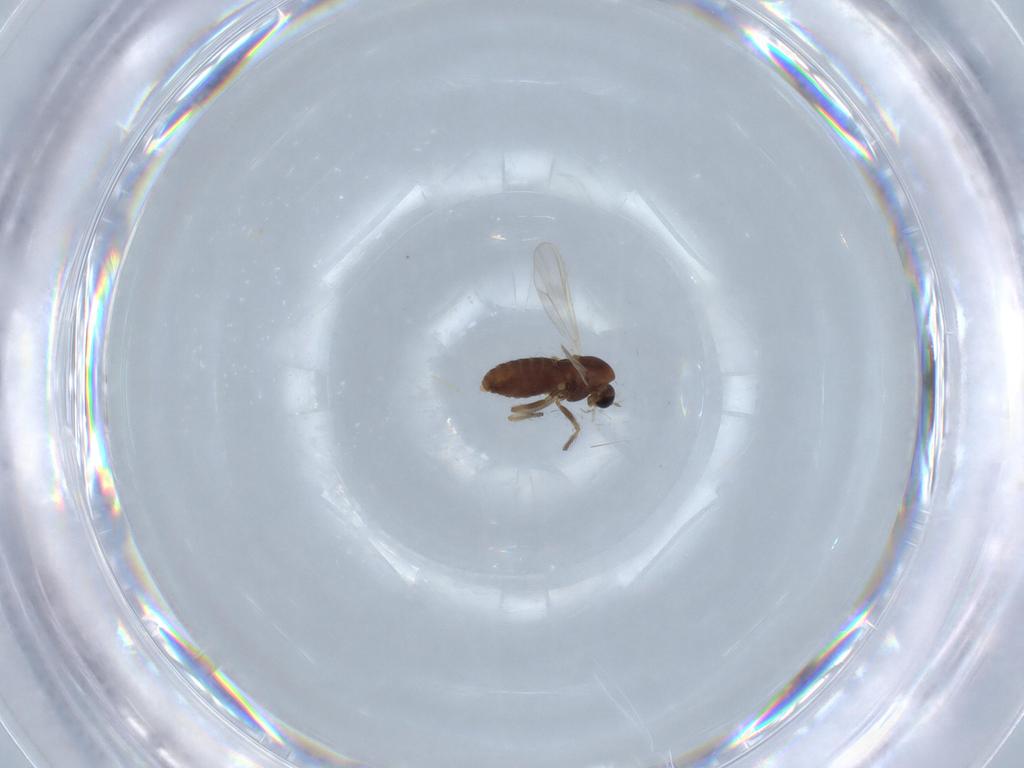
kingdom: Animalia
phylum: Arthropoda
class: Insecta
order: Diptera
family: Chironomidae
